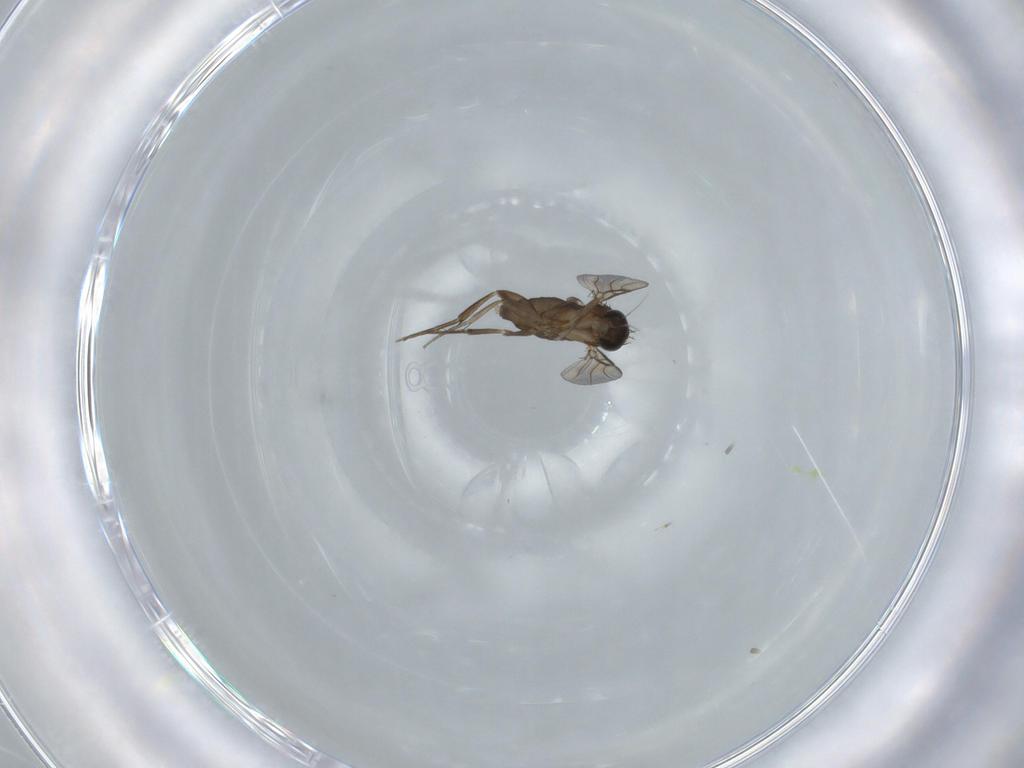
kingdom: Animalia
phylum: Arthropoda
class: Insecta
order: Diptera
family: Phoridae
